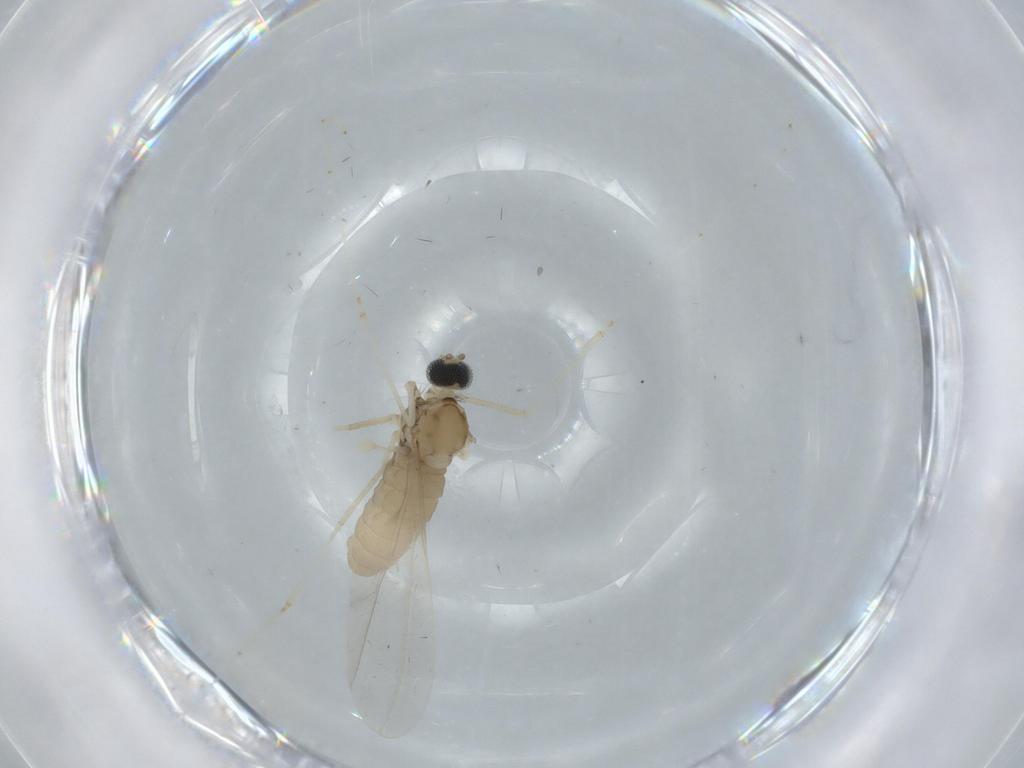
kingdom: Animalia
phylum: Arthropoda
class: Insecta
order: Diptera
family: Cecidomyiidae
